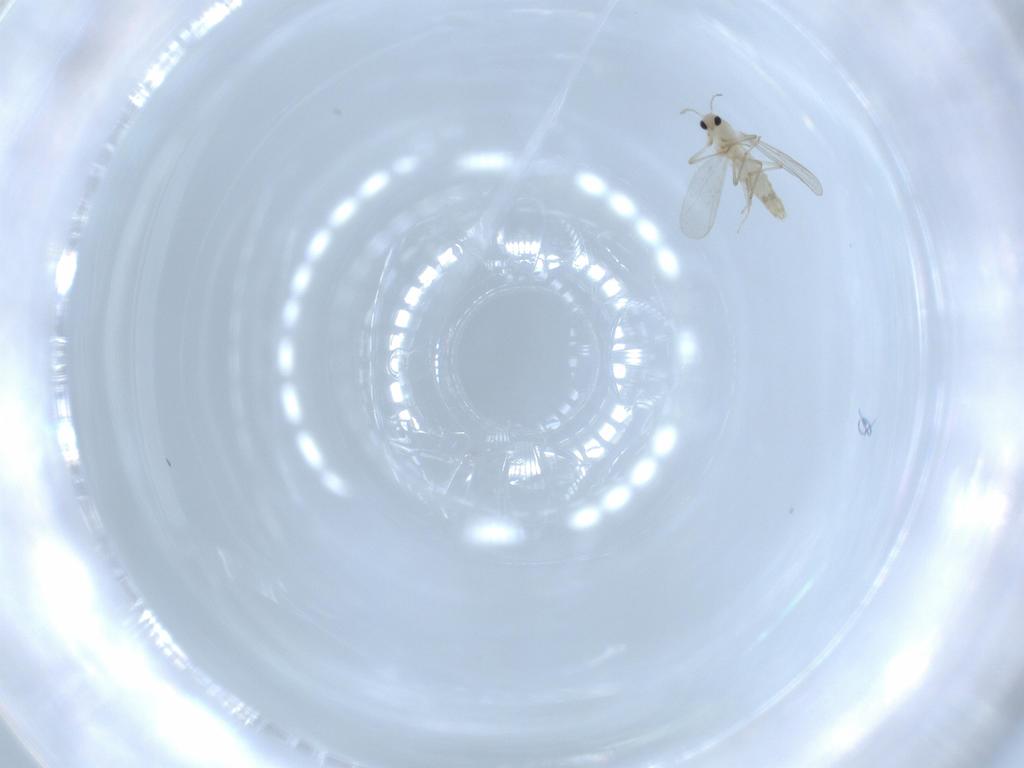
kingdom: Animalia
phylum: Arthropoda
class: Insecta
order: Diptera
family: Chironomidae
